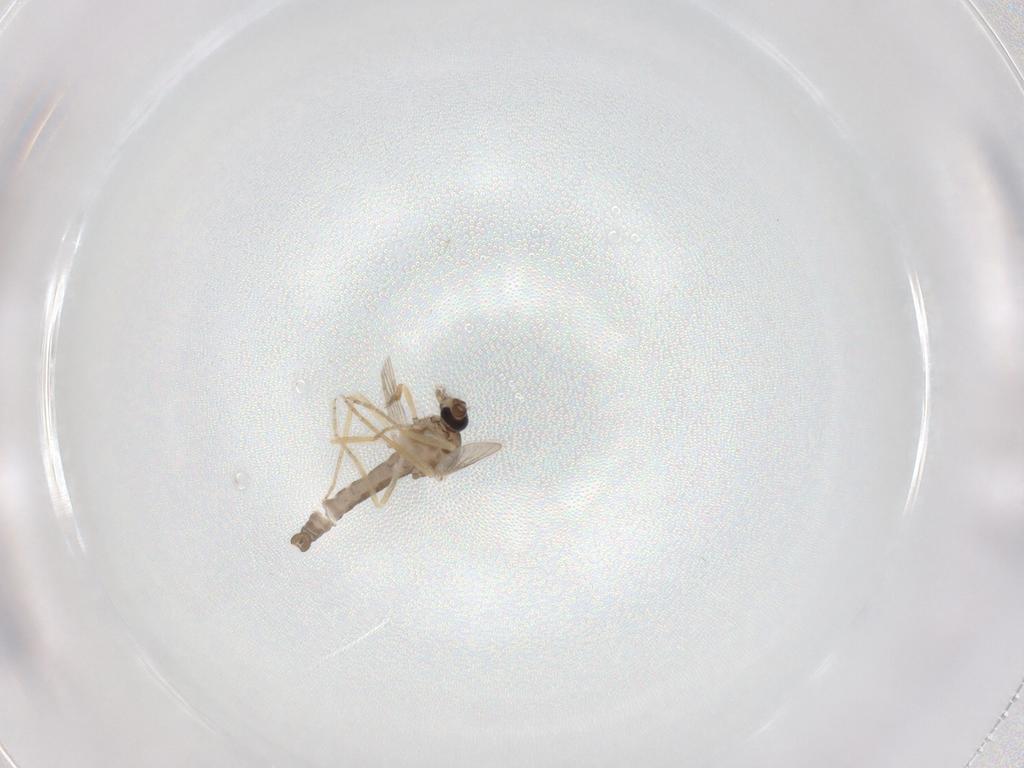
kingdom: Animalia
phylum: Arthropoda
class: Insecta
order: Diptera
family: Ceratopogonidae
